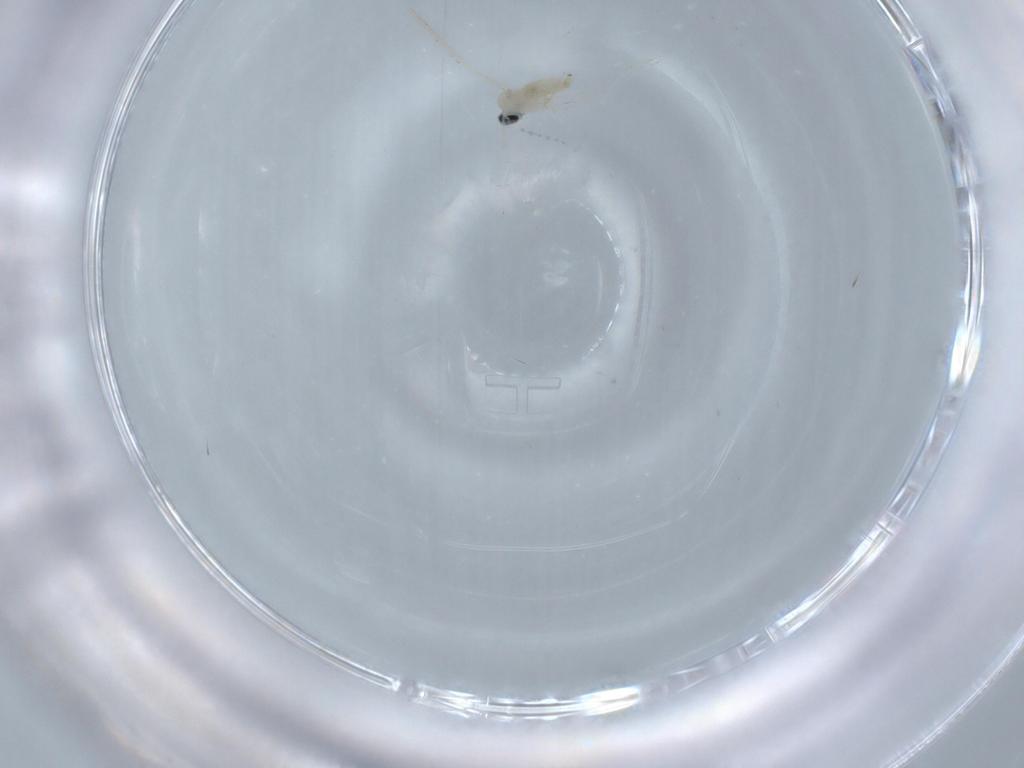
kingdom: Animalia
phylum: Arthropoda
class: Insecta
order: Diptera
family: Cecidomyiidae
